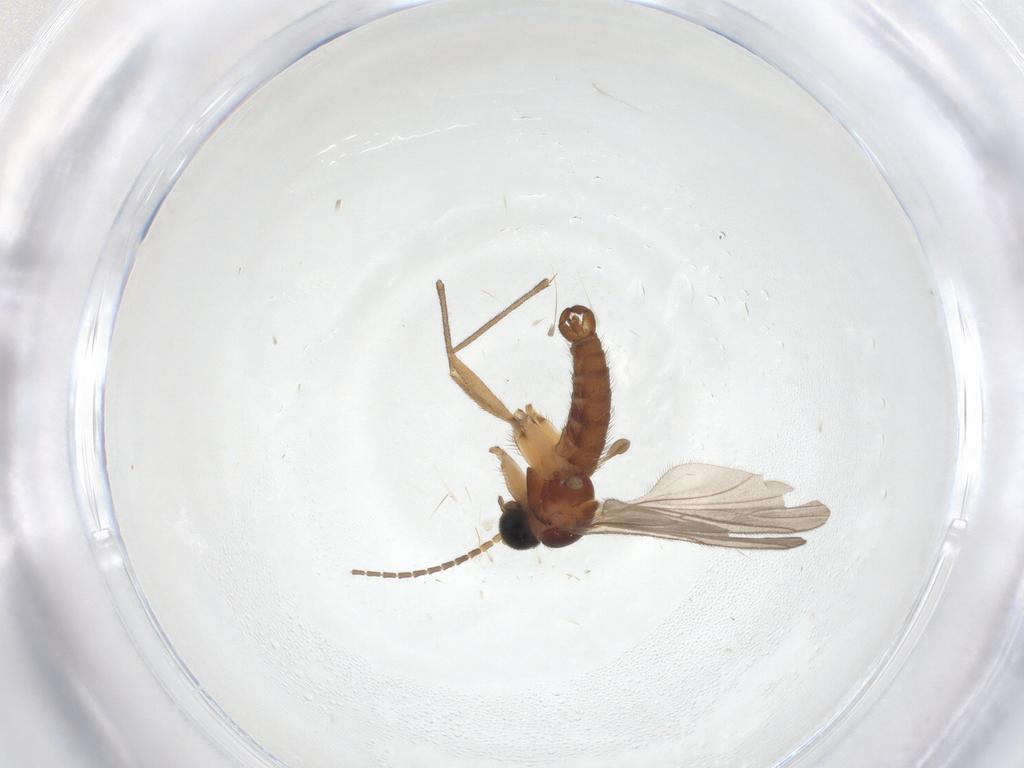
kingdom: Animalia
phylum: Arthropoda
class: Insecta
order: Diptera
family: Sciaridae
